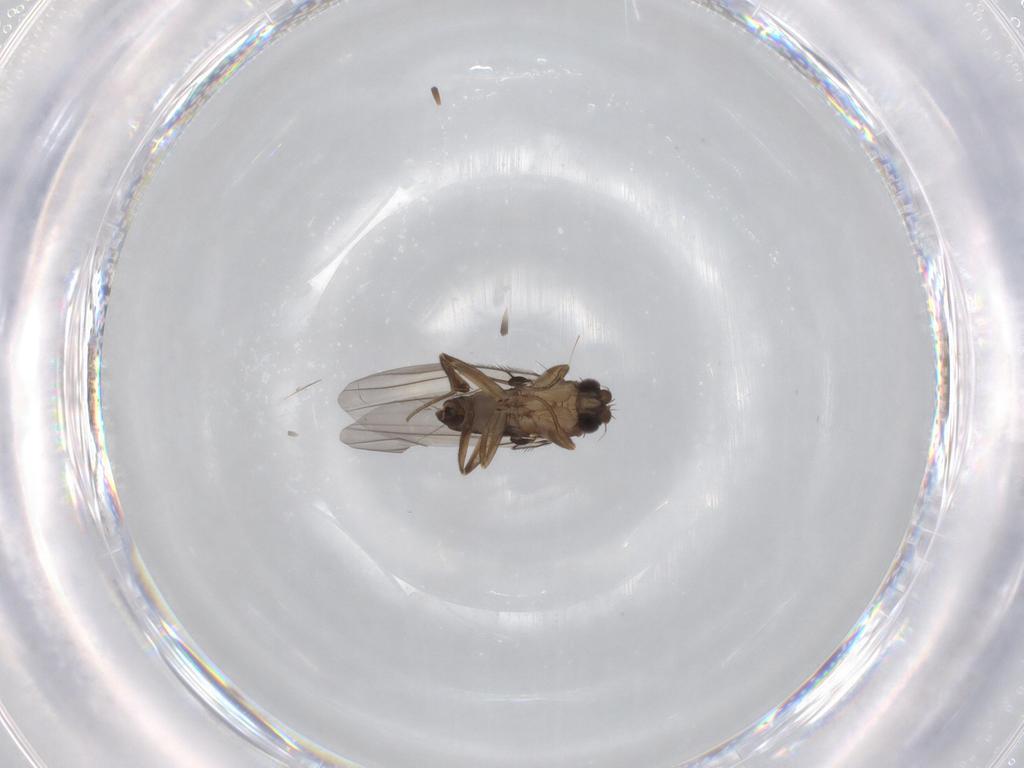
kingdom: Animalia
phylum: Arthropoda
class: Insecta
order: Diptera
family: Phoridae
